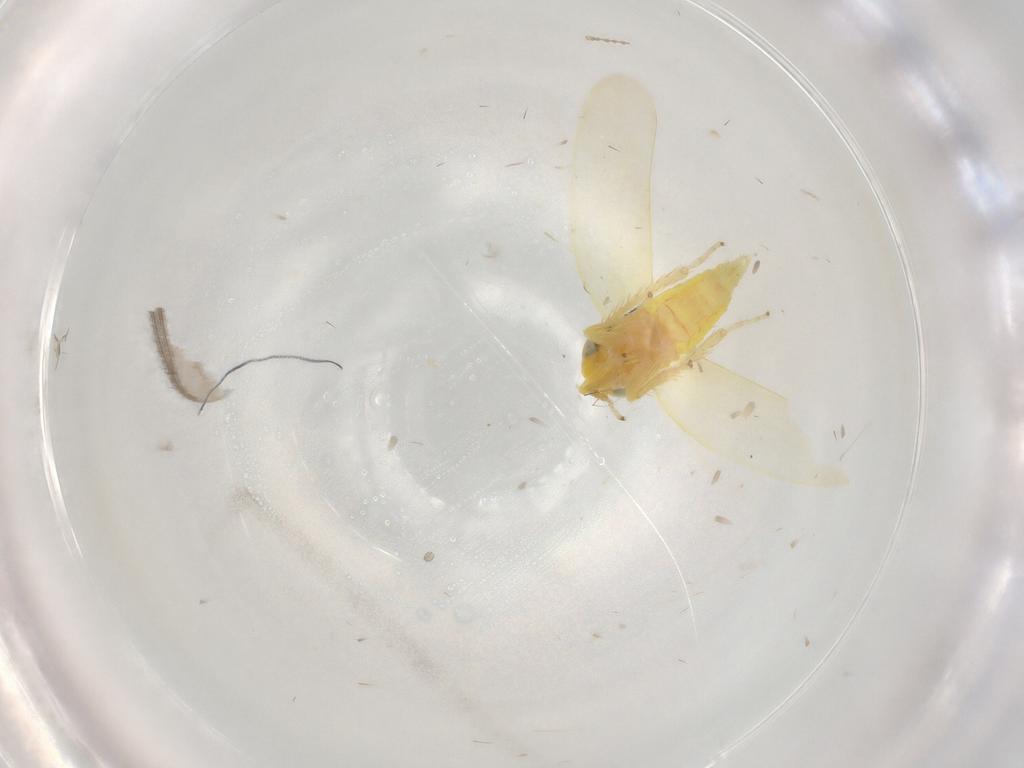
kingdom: Animalia
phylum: Arthropoda
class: Insecta
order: Hemiptera
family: Cicadellidae
